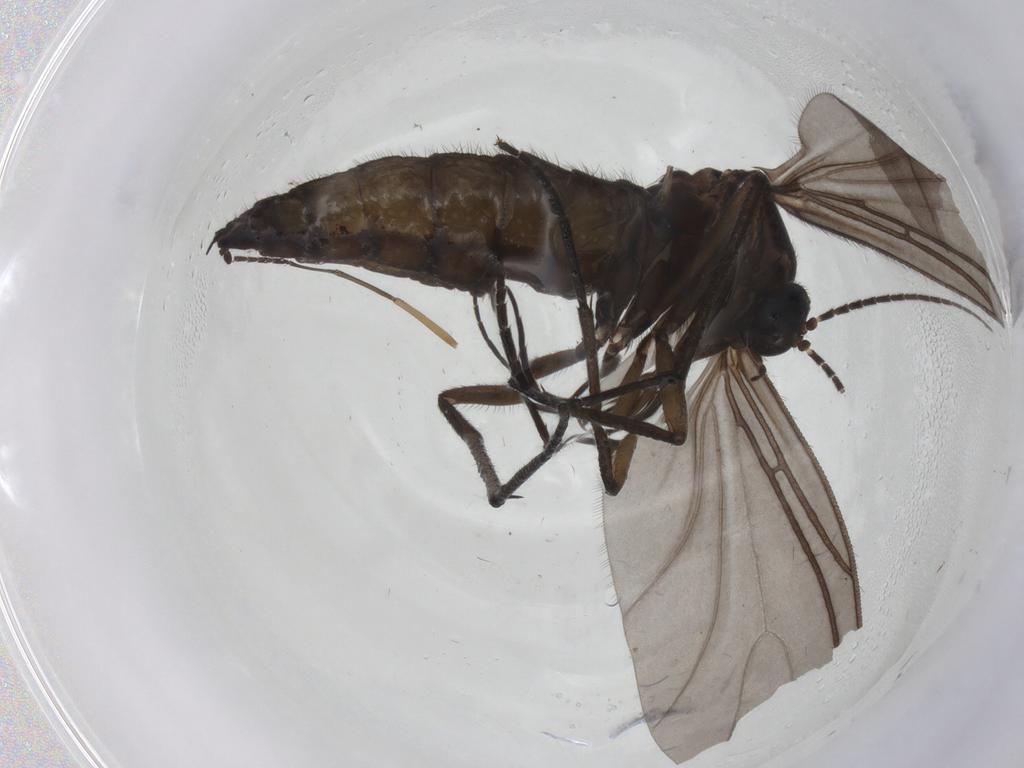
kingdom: Animalia
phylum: Arthropoda
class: Insecta
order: Diptera
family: Sciaridae
